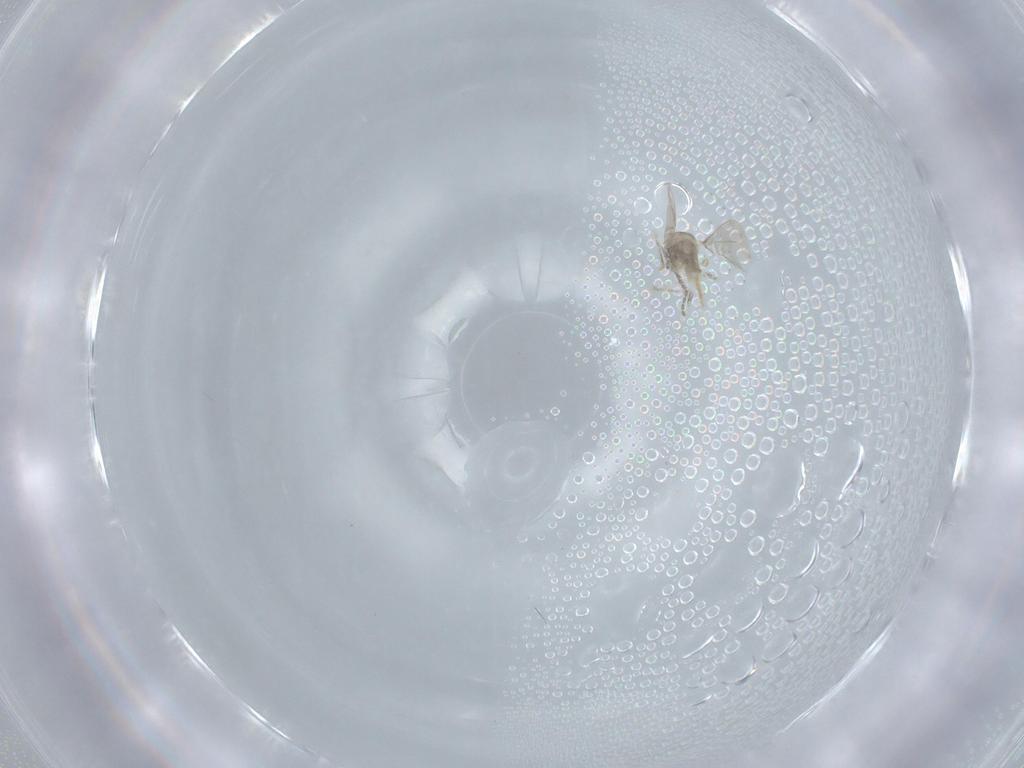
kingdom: Animalia
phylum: Arthropoda
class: Insecta
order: Diptera
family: Cecidomyiidae
